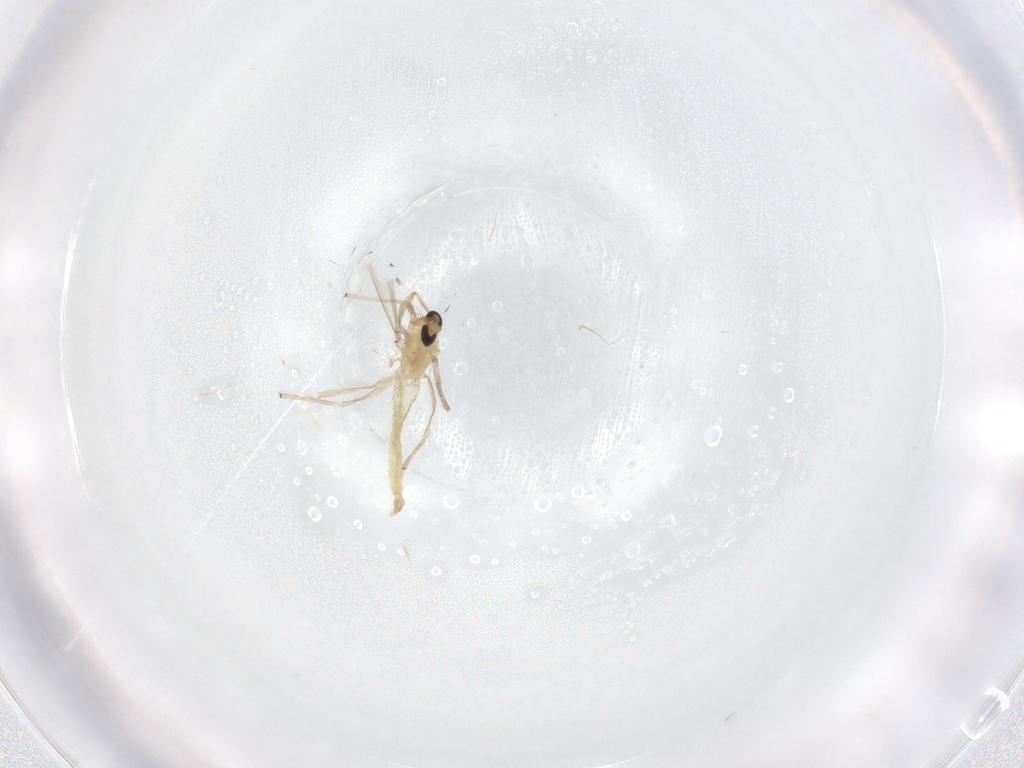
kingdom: Animalia
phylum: Arthropoda
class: Insecta
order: Diptera
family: Chironomidae
